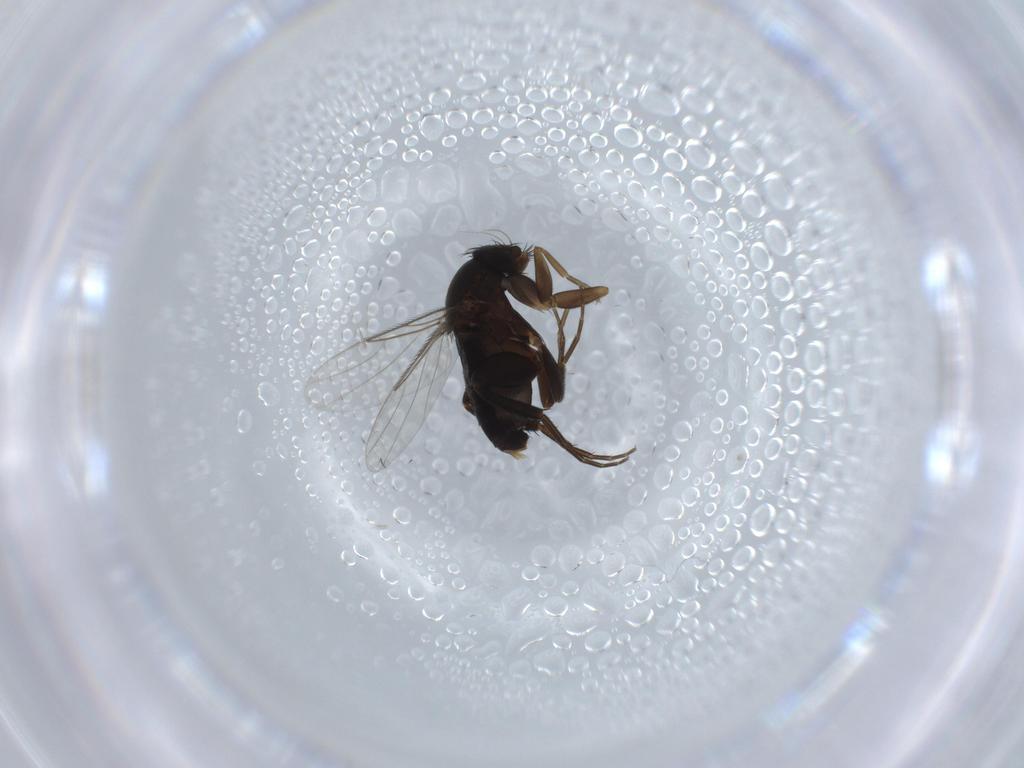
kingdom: Animalia
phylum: Arthropoda
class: Insecta
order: Diptera
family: Phoridae
